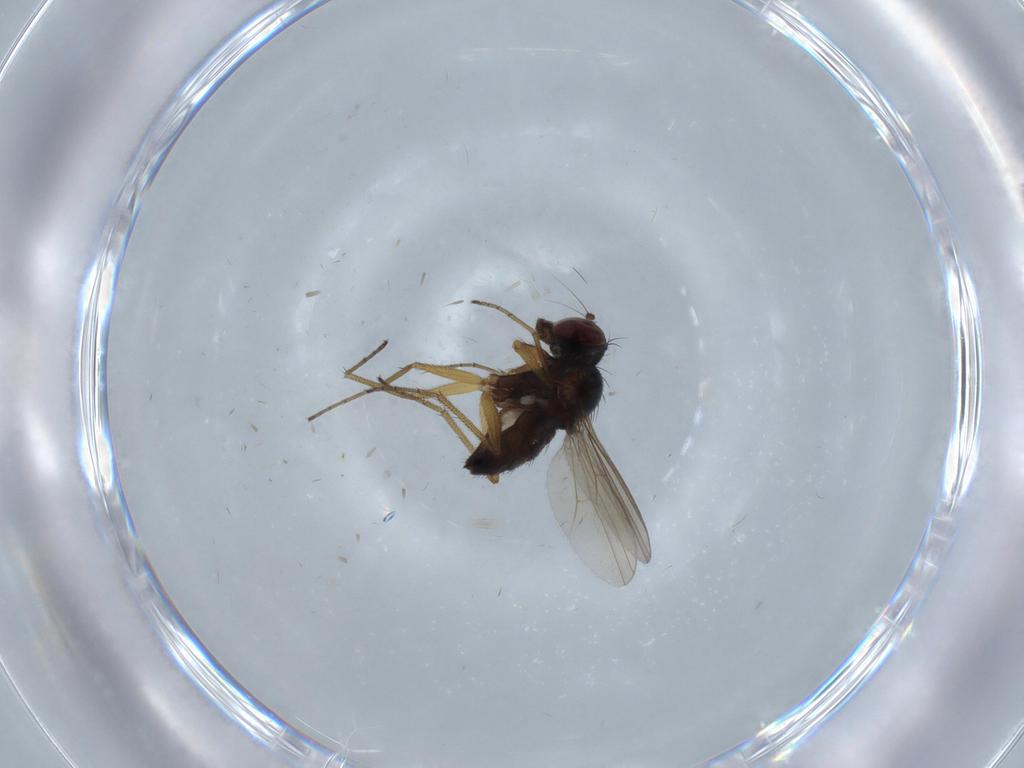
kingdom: Animalia
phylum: Arthropoda
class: Insecta
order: Diptera
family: Dolichopodidae
